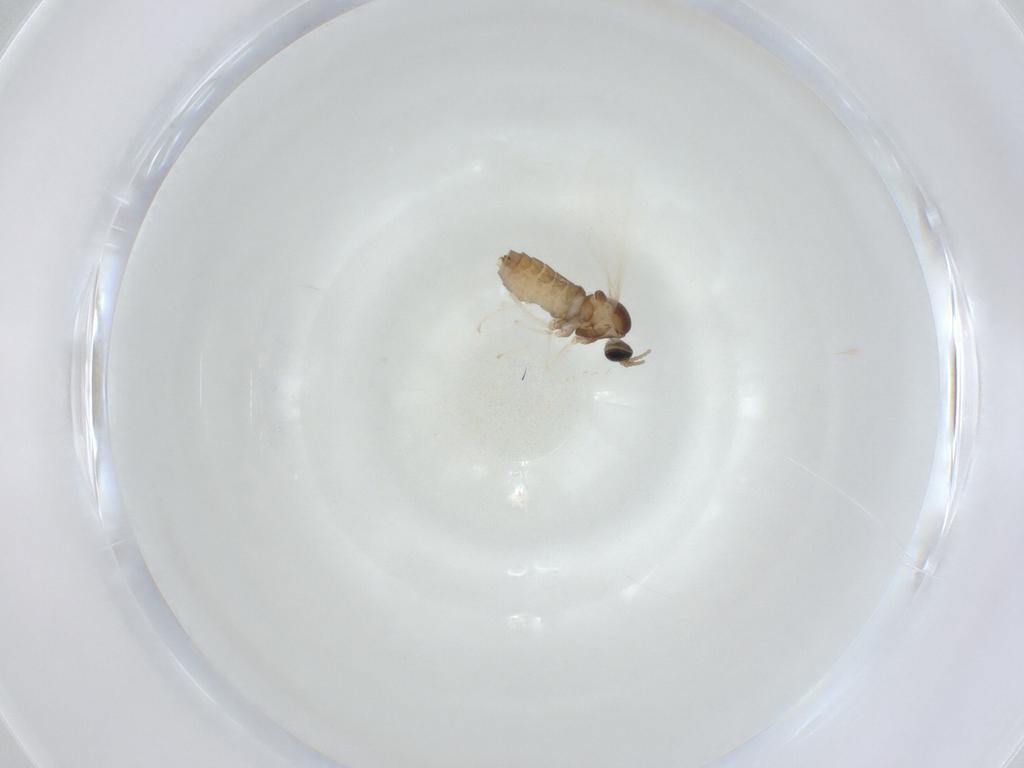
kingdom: Animalia
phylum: Arthropoda
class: Insecta
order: Diptera
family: Cecidomyiidae
